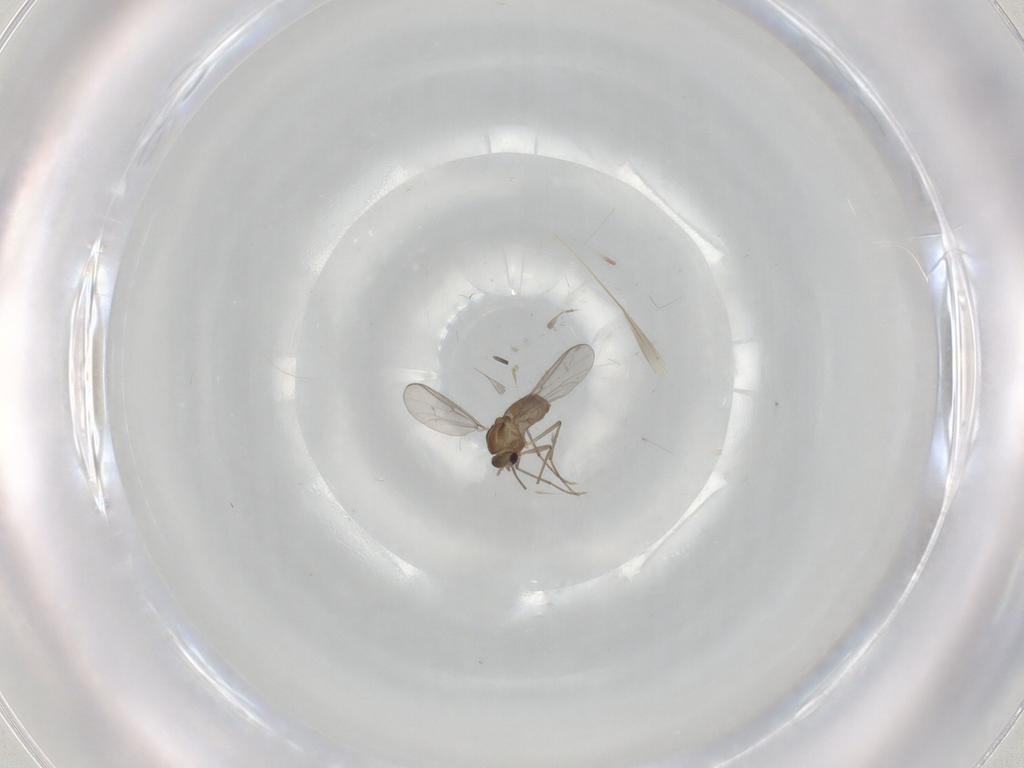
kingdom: Animalia
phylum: Arthropoda
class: Insecta
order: Diptera
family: Chironomidae
